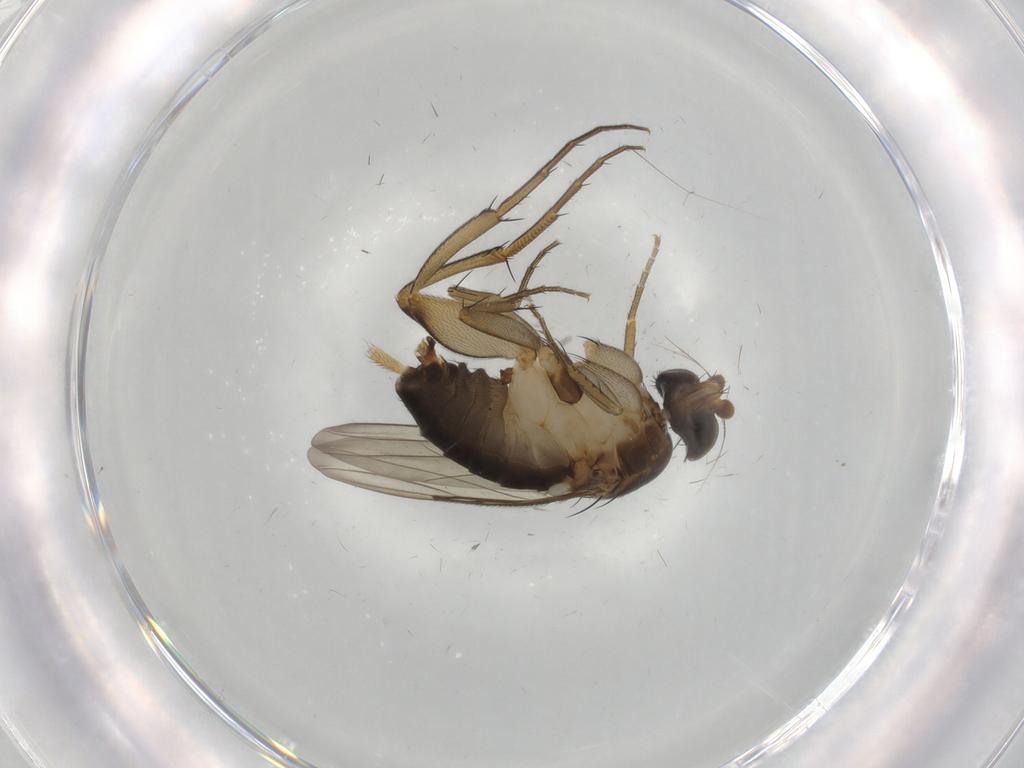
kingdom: Animalia
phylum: Arthropoda
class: Insecta
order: Diptera
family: Phoridae
